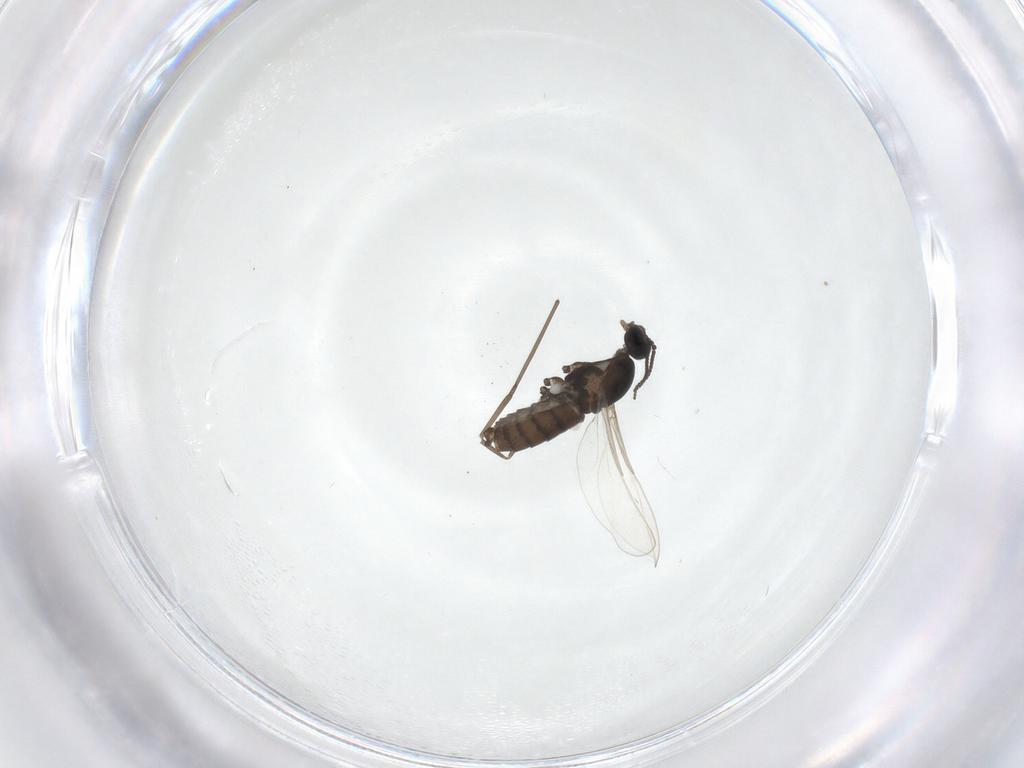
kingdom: Animalia
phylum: Arthropoda
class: Insecta
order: Diptera
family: Cecidomyiidae
